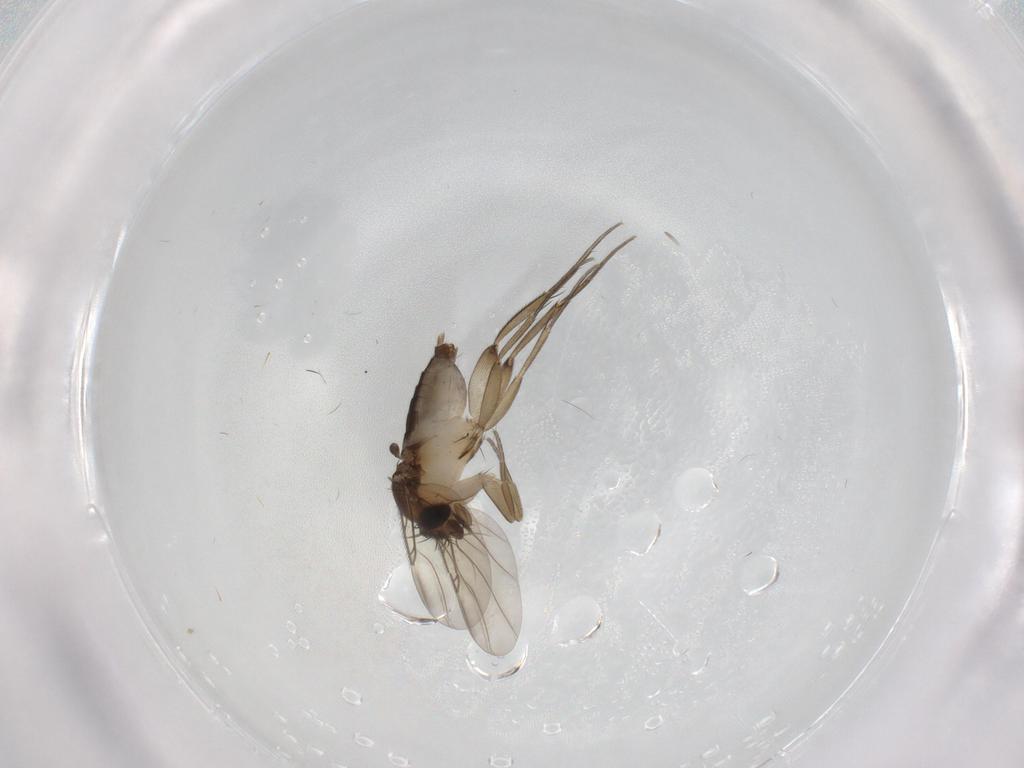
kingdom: Animalia
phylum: Arthropoda
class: Insecta
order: Diptera
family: Phoridae
